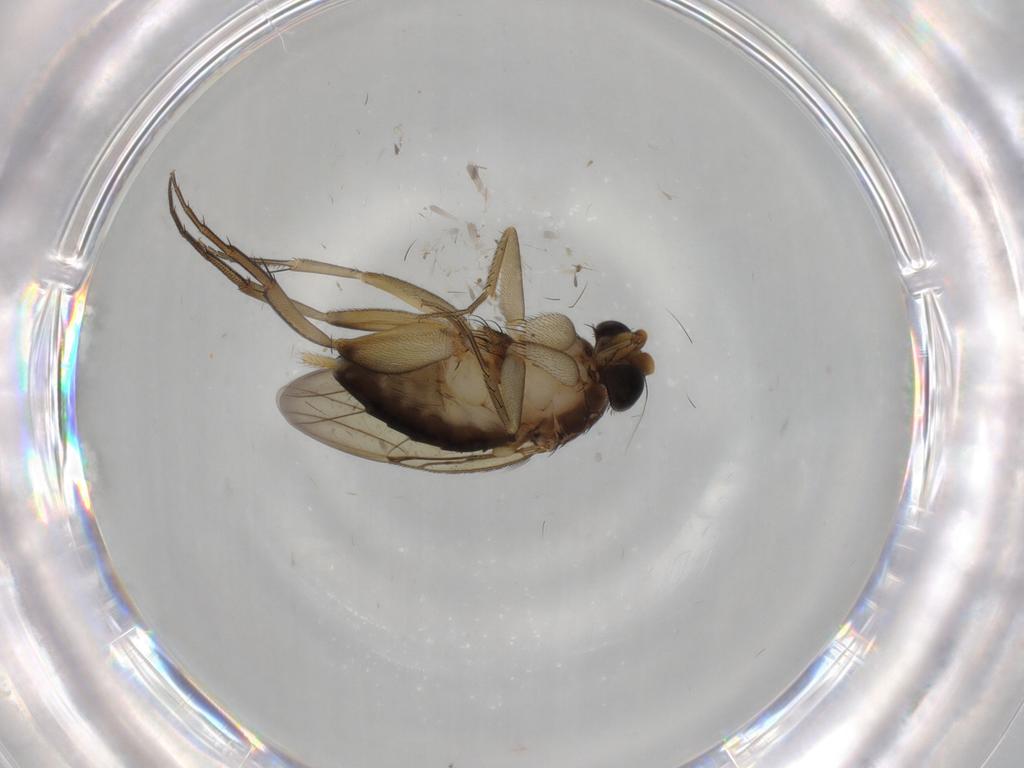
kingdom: Animalia
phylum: Arthropoda
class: Insecta
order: Diptera
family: Phoridae
